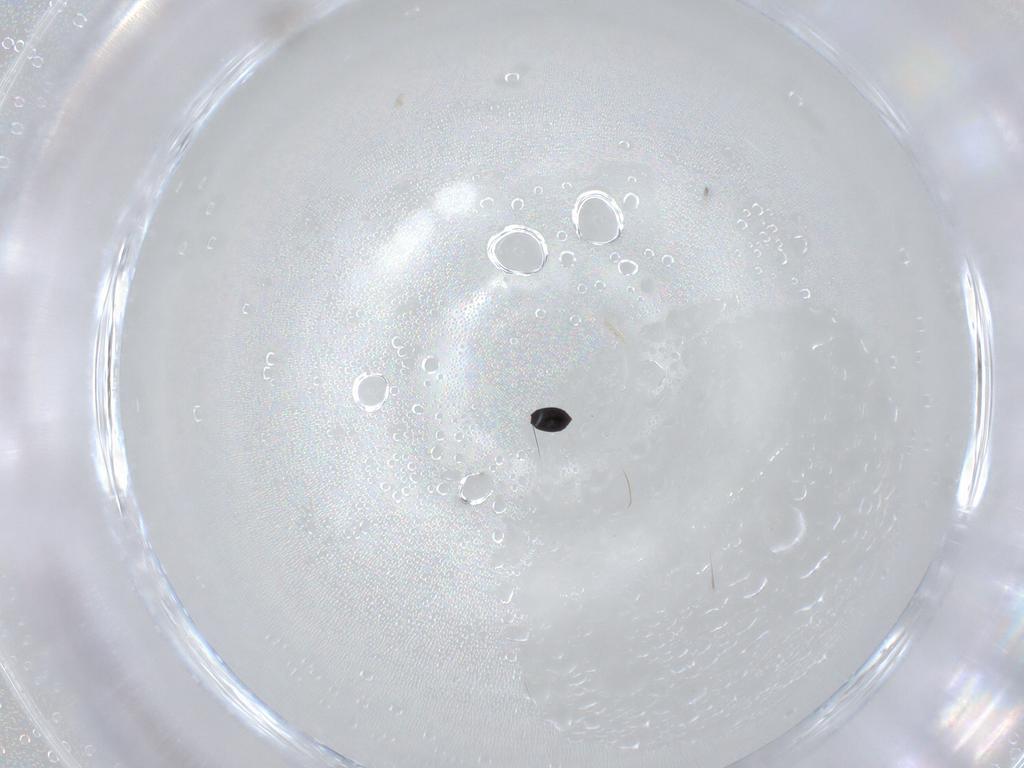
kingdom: Animalia
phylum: Arthropoda
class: Insecta
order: Hymenoptera
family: Platygastridae
